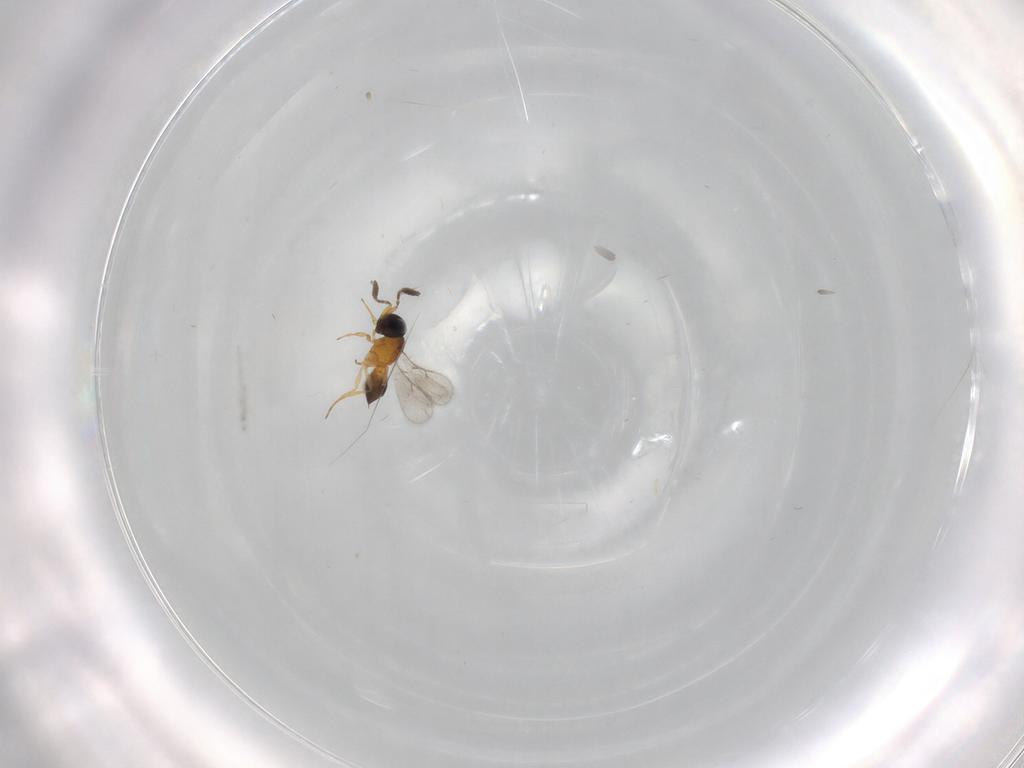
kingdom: Animalia
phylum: Arthropoda
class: Insecta
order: Hymenoptera
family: Scelionidae
